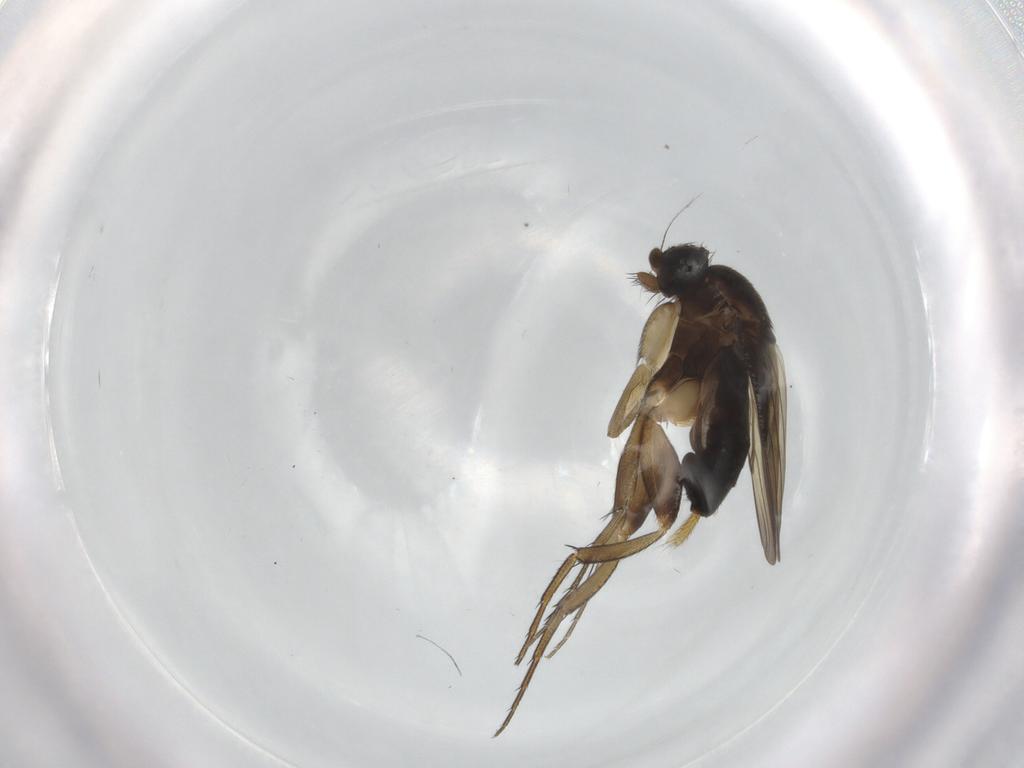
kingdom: Animalia
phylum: Arthropoda
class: Insecta
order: Diptera
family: Phoridae
